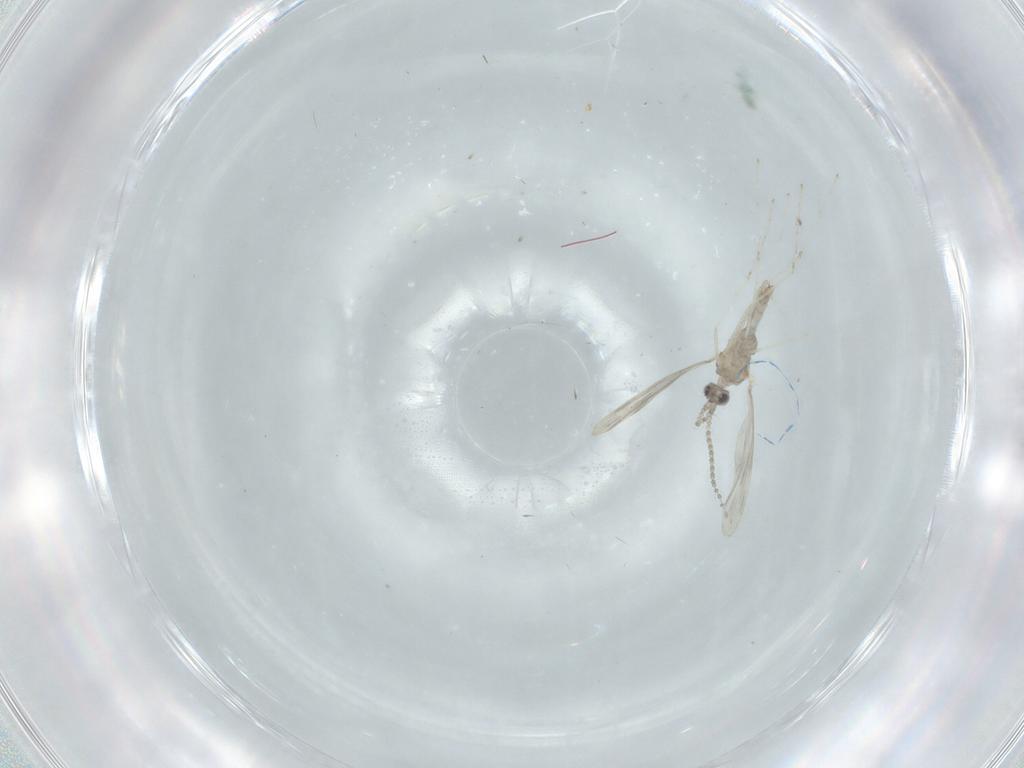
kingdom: Animalia
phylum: Arthropoda
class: Insecta
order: Diptera
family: Cecidomyiidae
